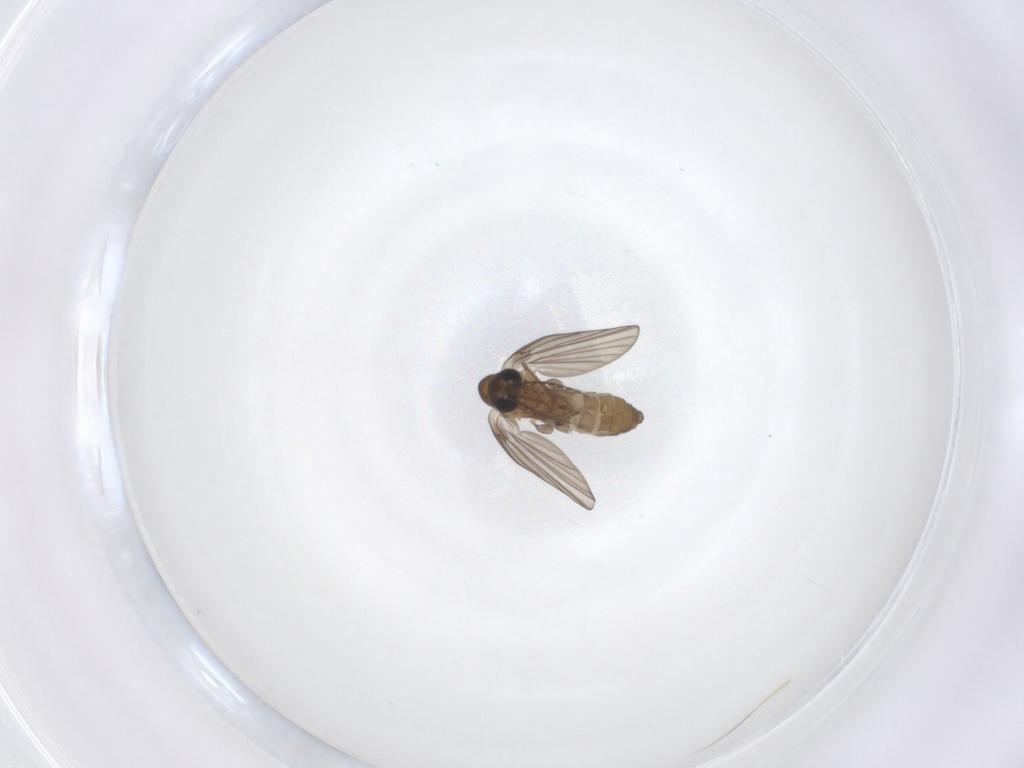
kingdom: Animalia
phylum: Arthropoda
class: Insecta
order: Diptera
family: Psychodidae
